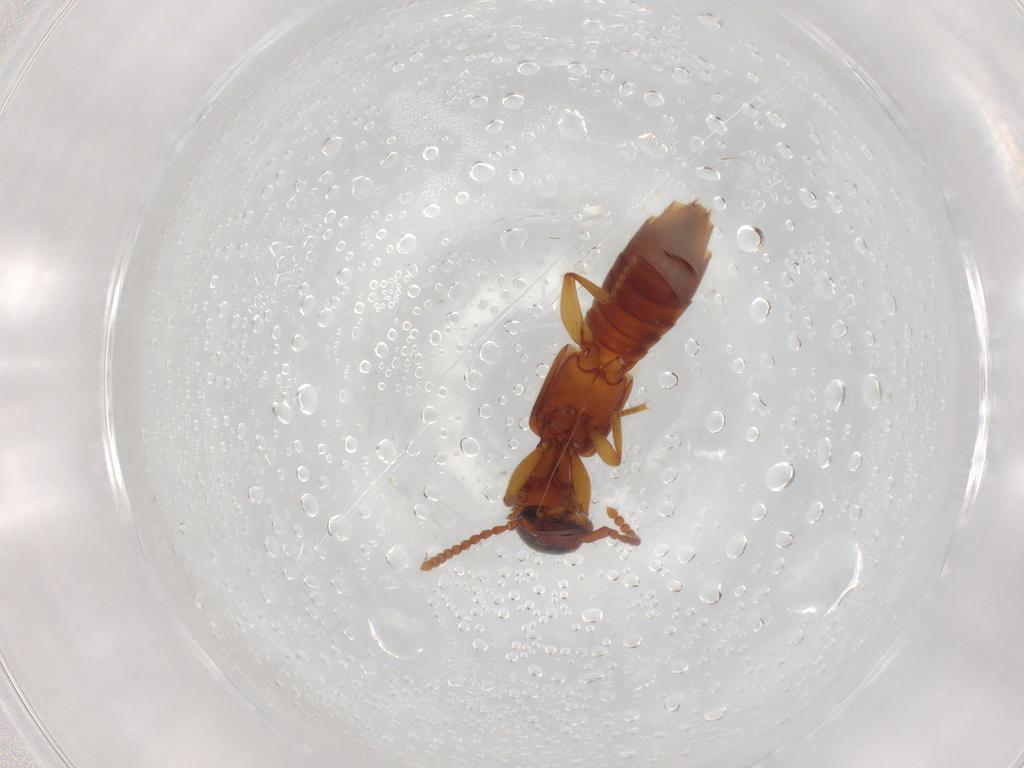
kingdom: Animalia
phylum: Arthropoda
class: Insecta
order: Coleoptera
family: Staphylinidae
